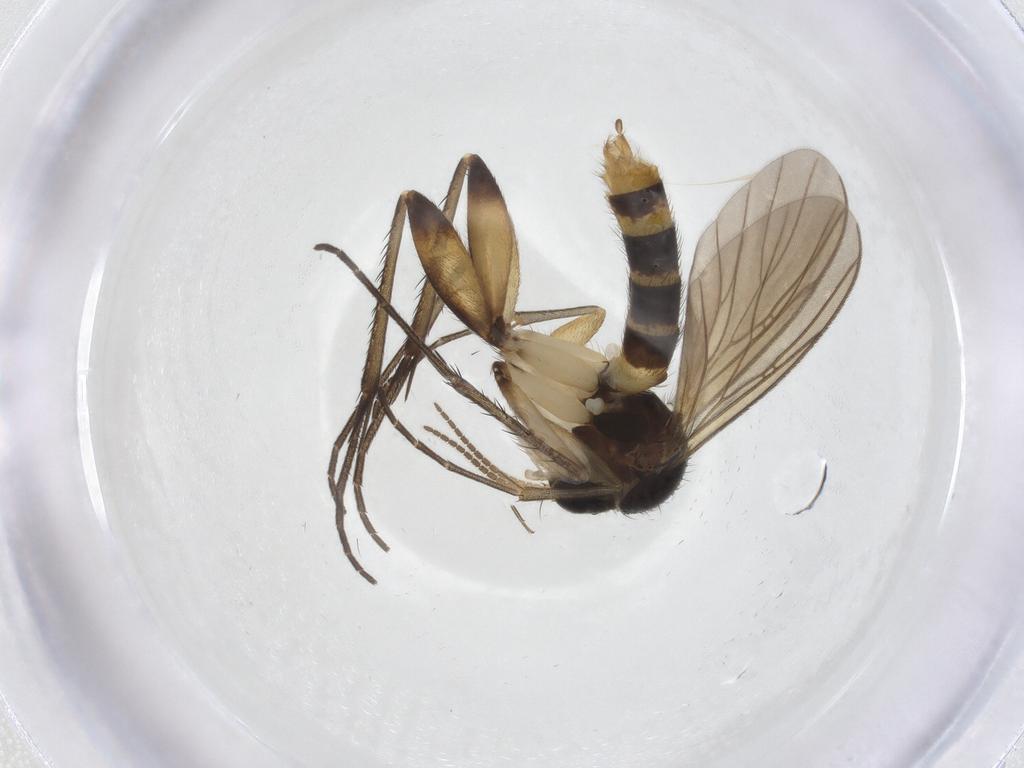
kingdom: Animalia
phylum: Arthropoda
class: Insecta
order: Diptera
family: Mycetophilidae
